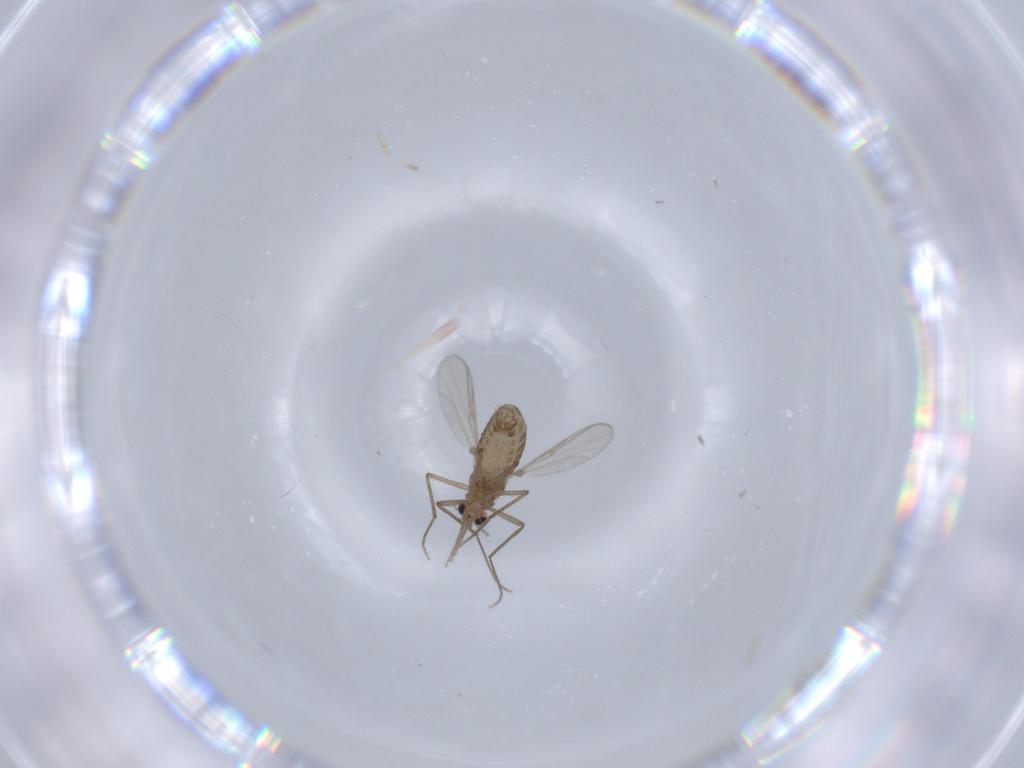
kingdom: Animalia
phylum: Arthropoda
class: Insecta
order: Diptera
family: Chironomidae
